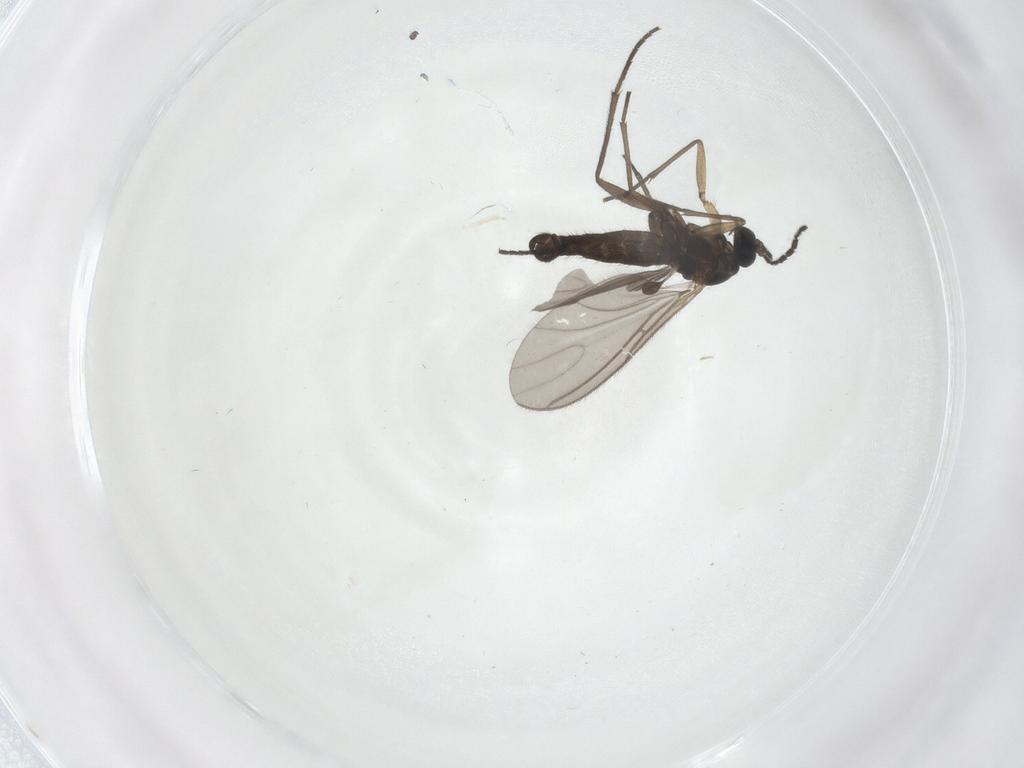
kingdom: Animalia
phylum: Arthropoda
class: Insecta
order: Diptera
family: Sciaridae
